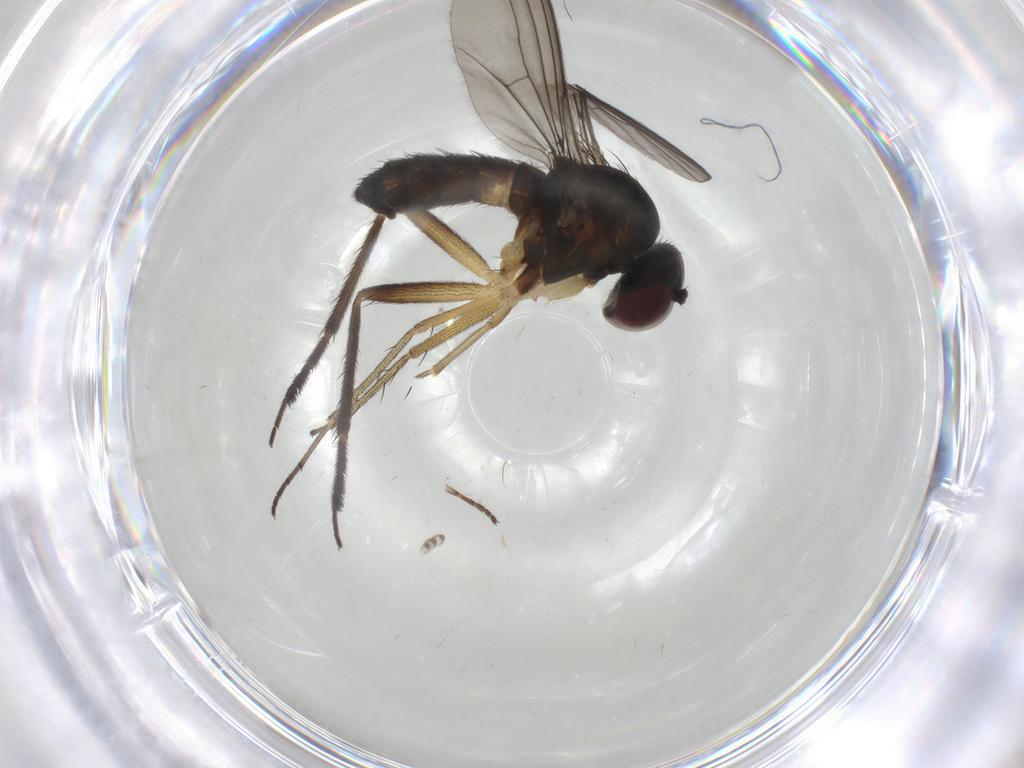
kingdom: Animalia
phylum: Arthropoda
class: Insecta
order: Diptera
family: Dolichopodidae
